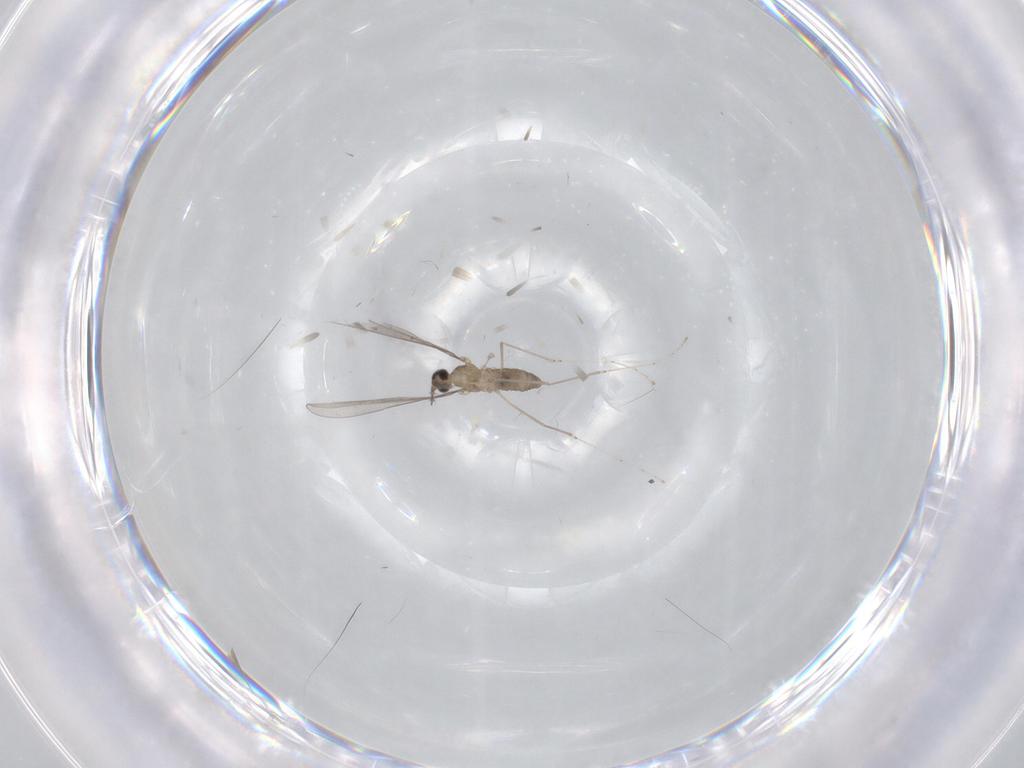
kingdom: Animalia
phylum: Arthropoda
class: Insecta
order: Diptera
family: Cecidomyiidae
